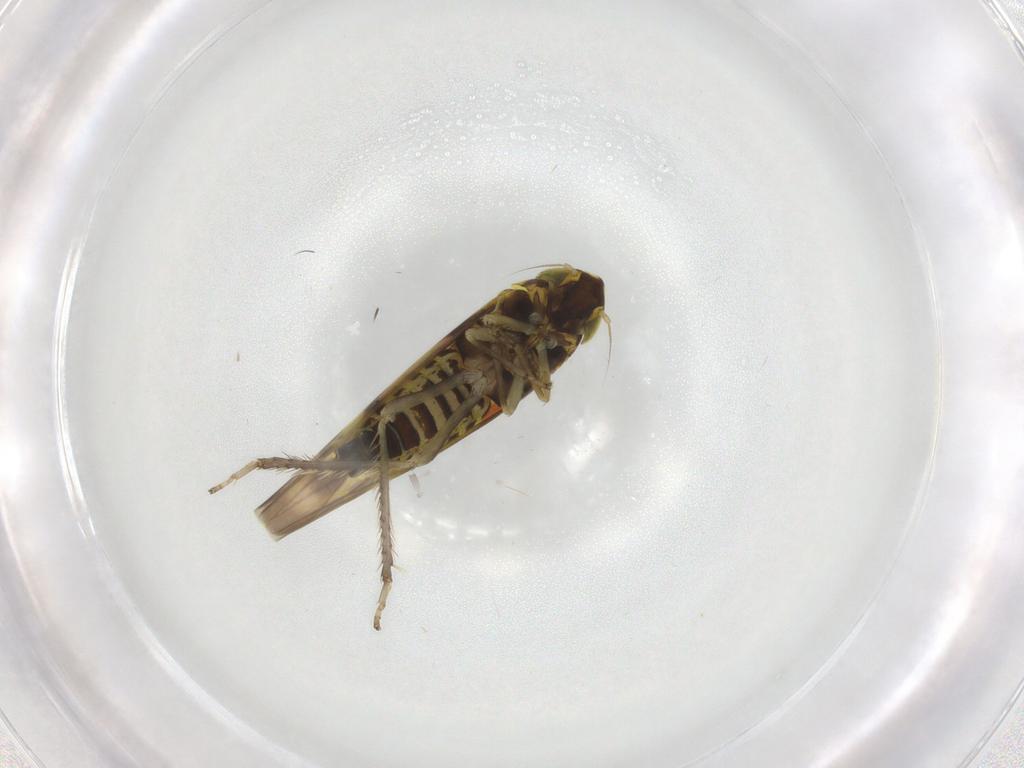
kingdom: Animalia
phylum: Arthropoda
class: Insecta
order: Hemiptera
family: Cicadellidae
